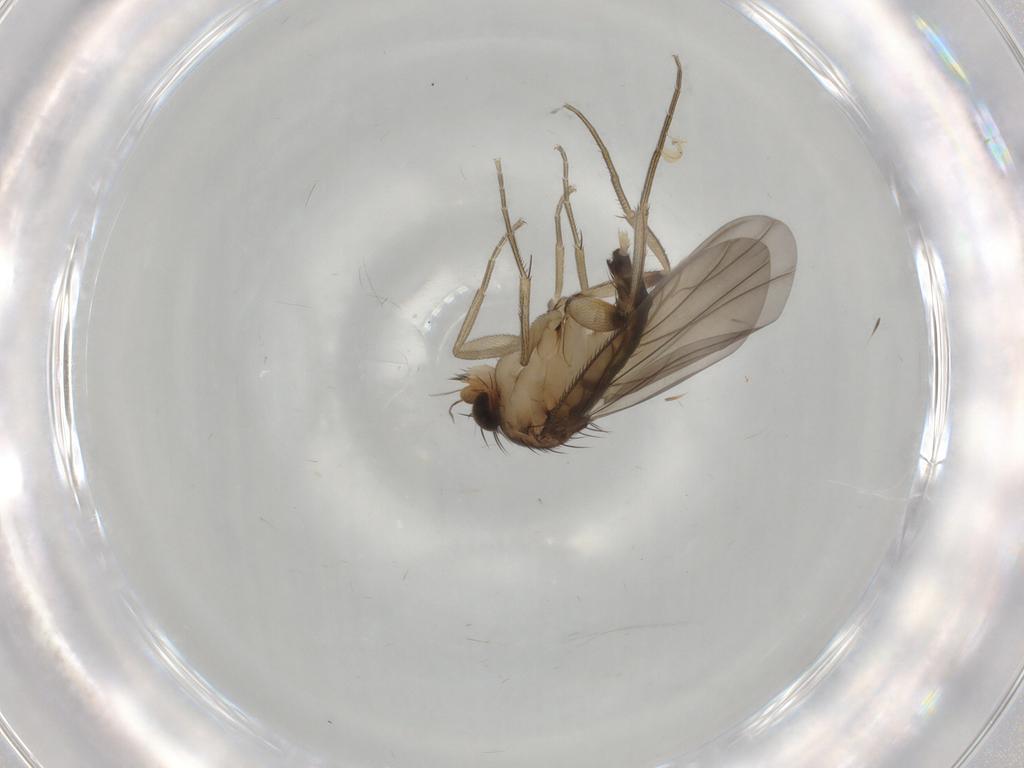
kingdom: Animalia
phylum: Arthropoda
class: Insecta
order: Diptera
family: Phoridae
